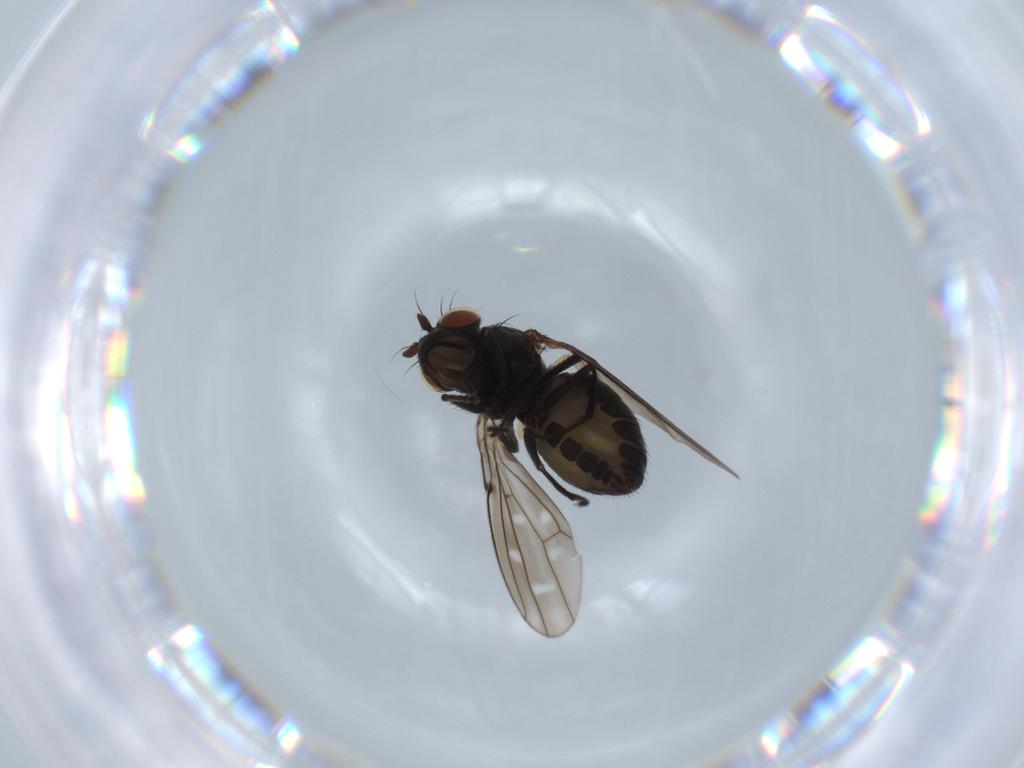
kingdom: Animalia
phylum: Arthropoda
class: Insecta
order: Diptera
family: Ephydridae
